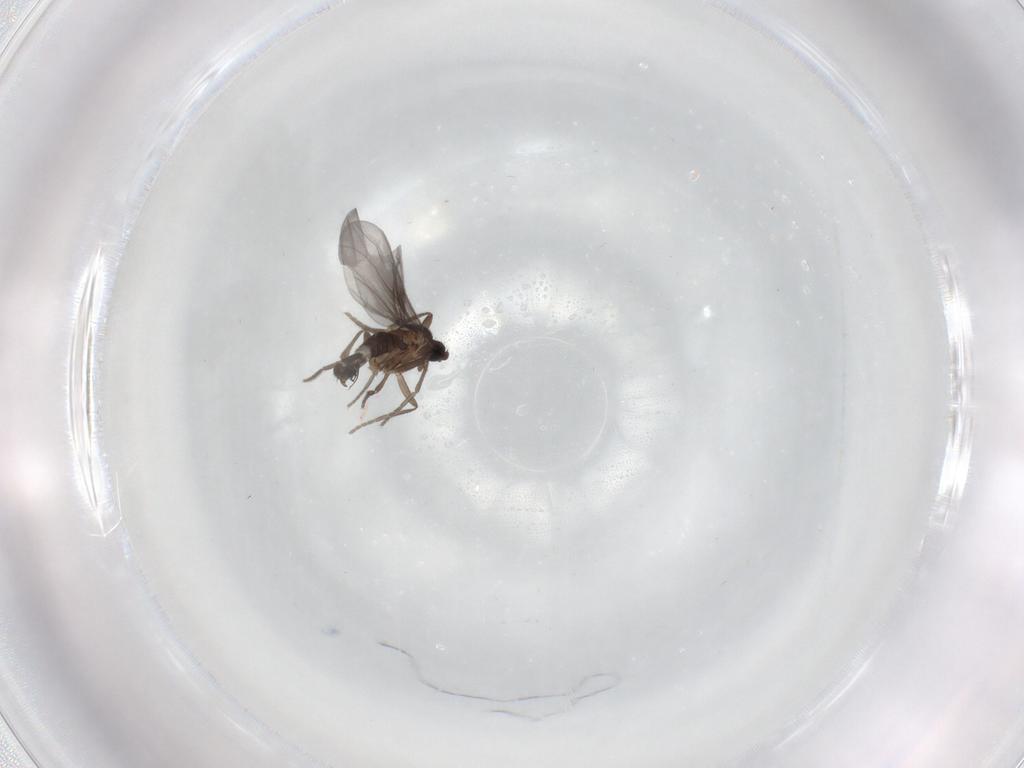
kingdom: Animalia
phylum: Arthropoda
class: Insecta
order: Diptera
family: Phoridae
